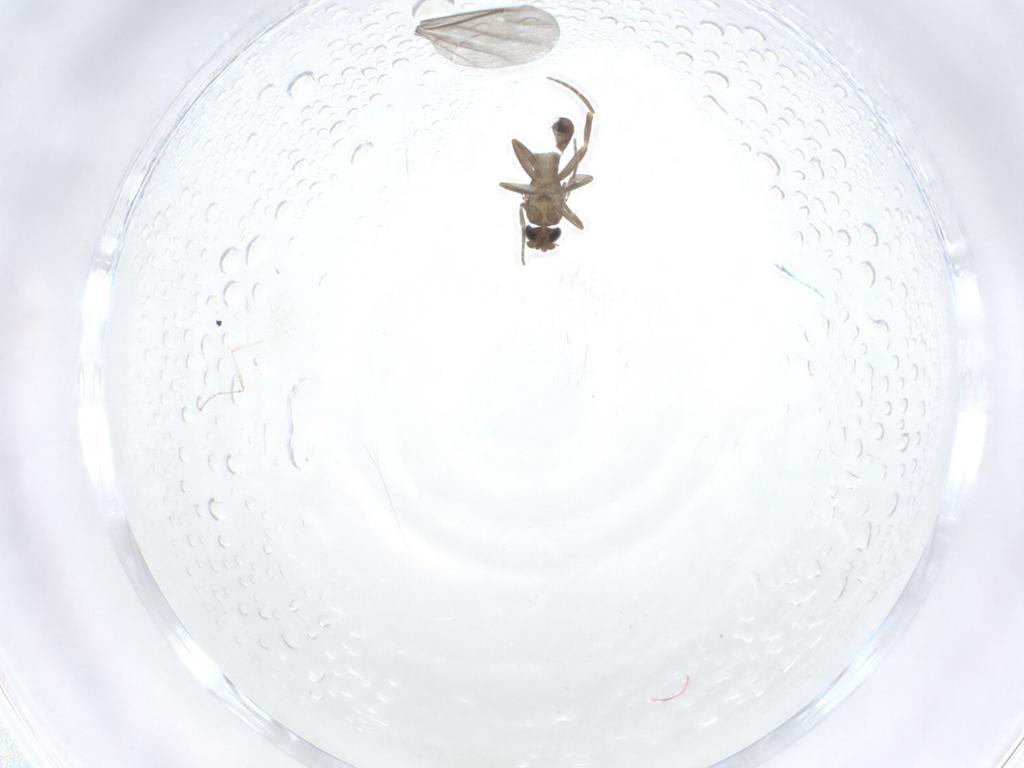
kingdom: Animalia
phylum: Arthropoda
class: Insecta
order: Diptera
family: Phoridae
